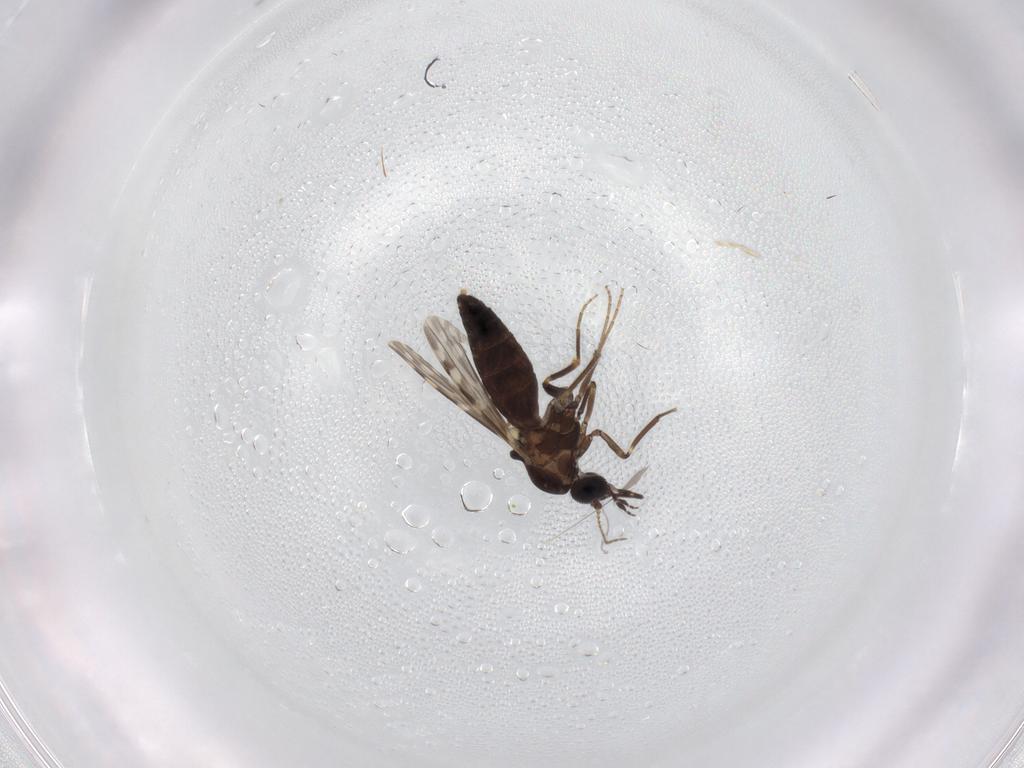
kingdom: Animalia
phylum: Arthropoda
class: Insecta
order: Diptera
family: Ceratopogonidae
